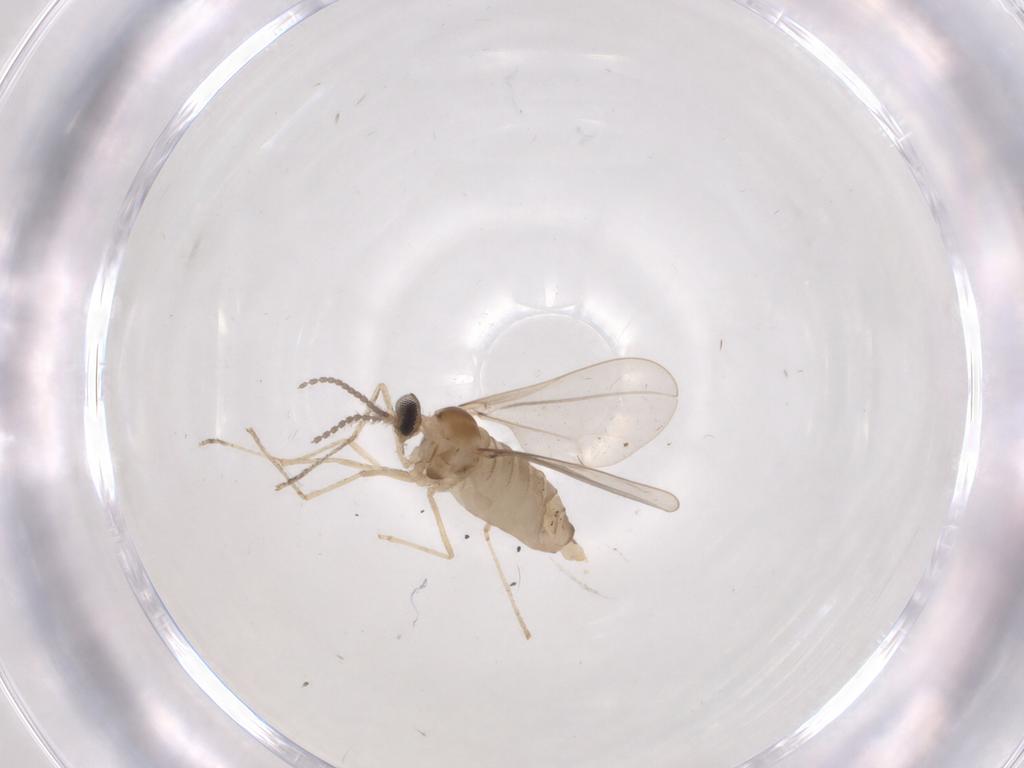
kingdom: Animalia
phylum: Arthropoda
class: Insecta
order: Diptera
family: Cecidomyiidae
